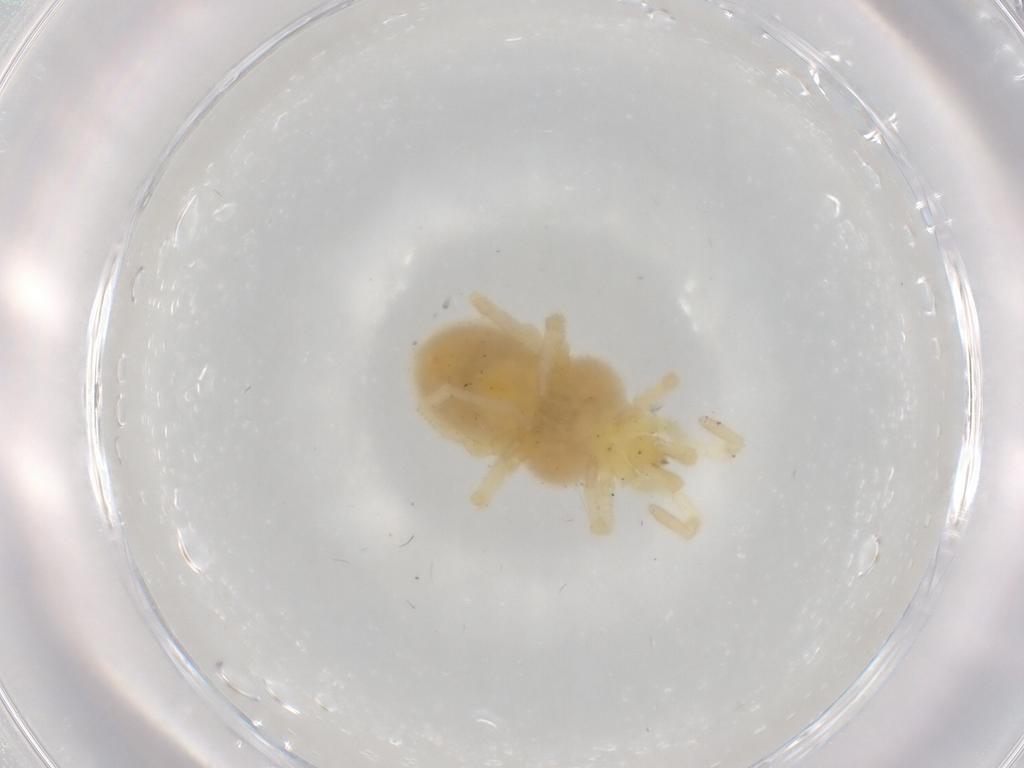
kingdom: Animalia
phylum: Arthropoda
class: Arachnida
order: Trombidiformes
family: Trombidiidae
